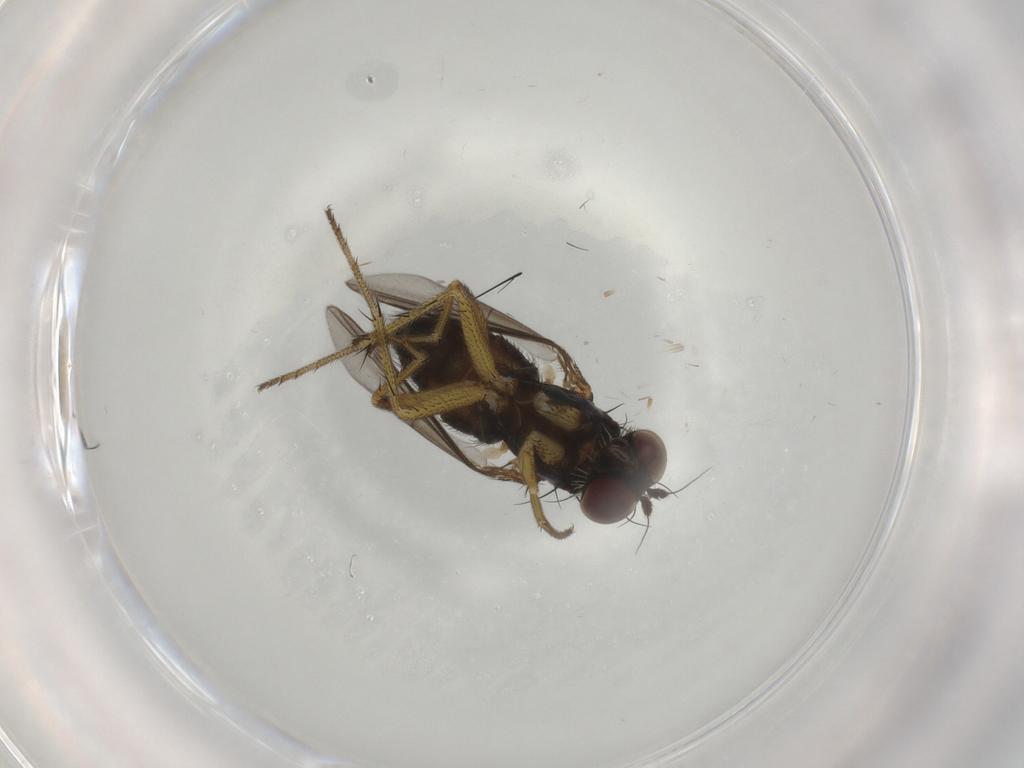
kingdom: Animalia
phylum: Arthropoda
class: Insecta
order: Diptera
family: Dolichopodidae
